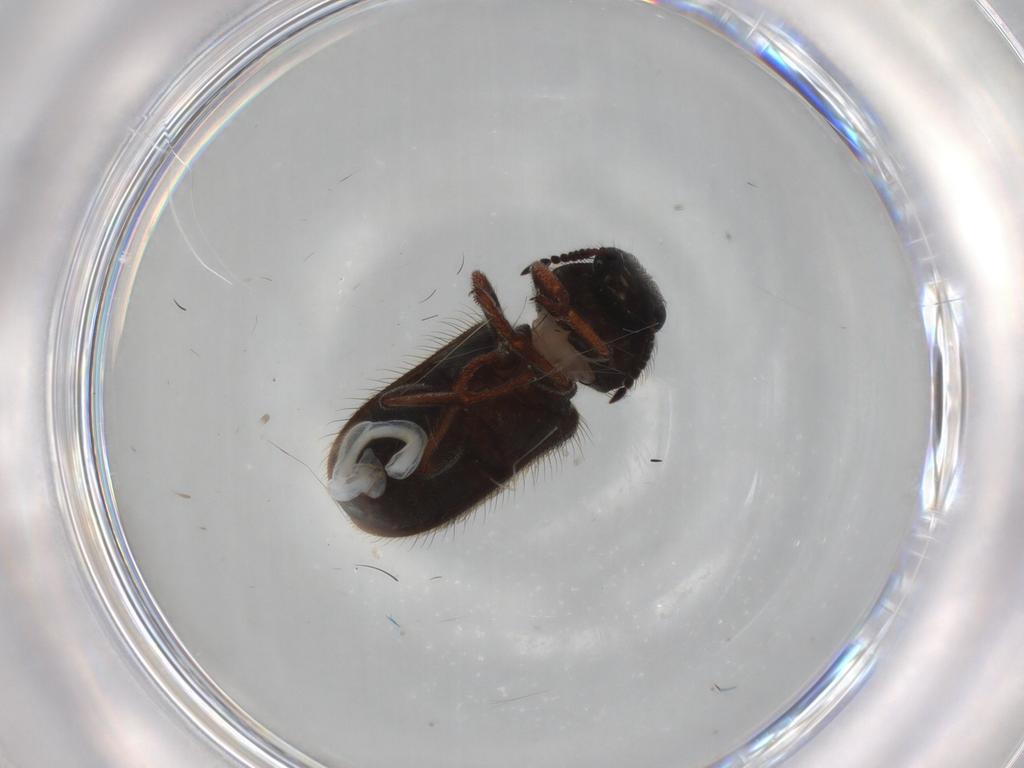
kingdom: Animalia
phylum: Arthropoda
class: Insecta
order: Coleoptera
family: Melyridae
